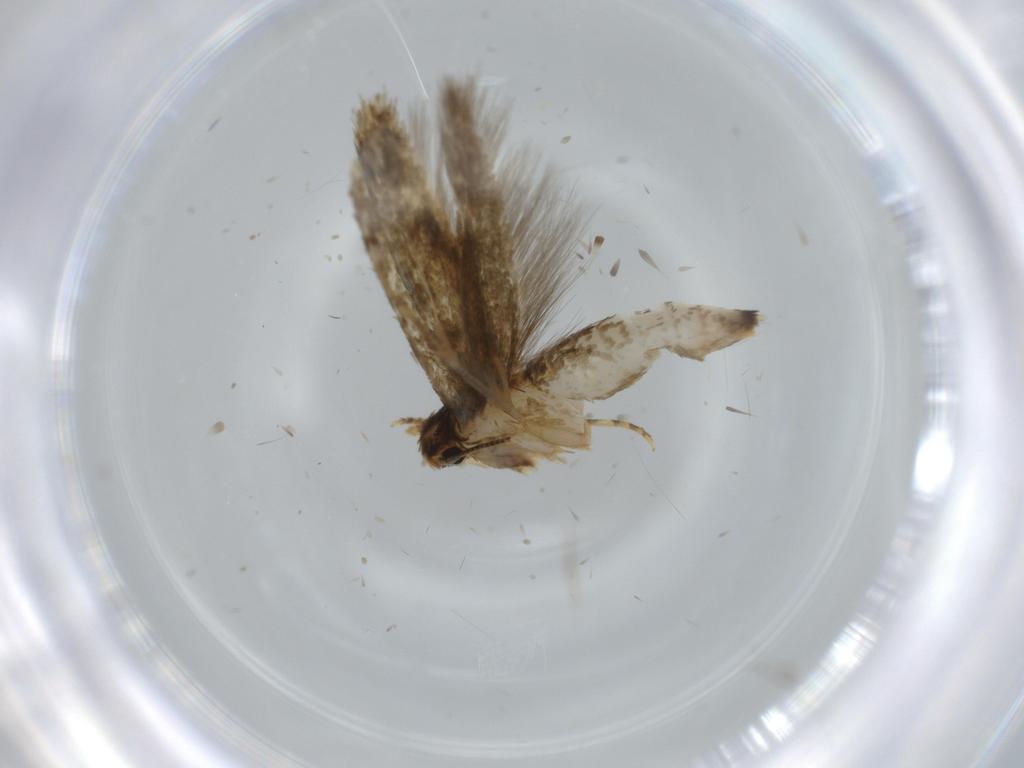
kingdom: Animalia
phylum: Arthropoda
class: Insecta
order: Lepidoptera
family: Tineidae
